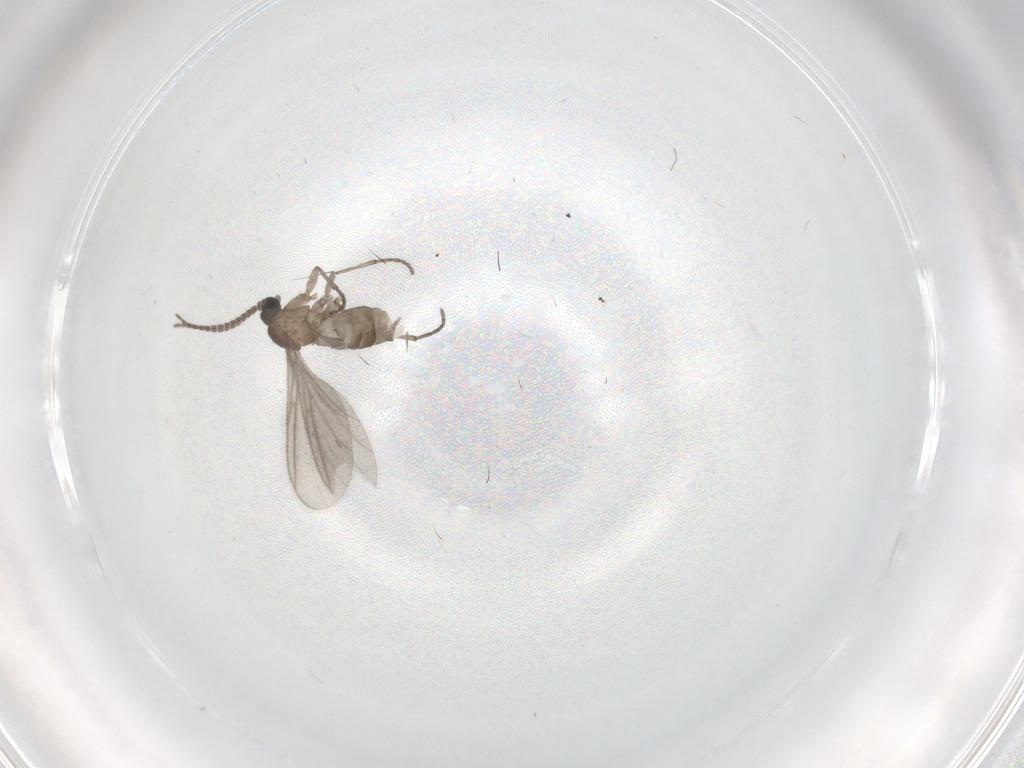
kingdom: Animalia
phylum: Arthropoda
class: Insecta
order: Diptera
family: Sciaridae
